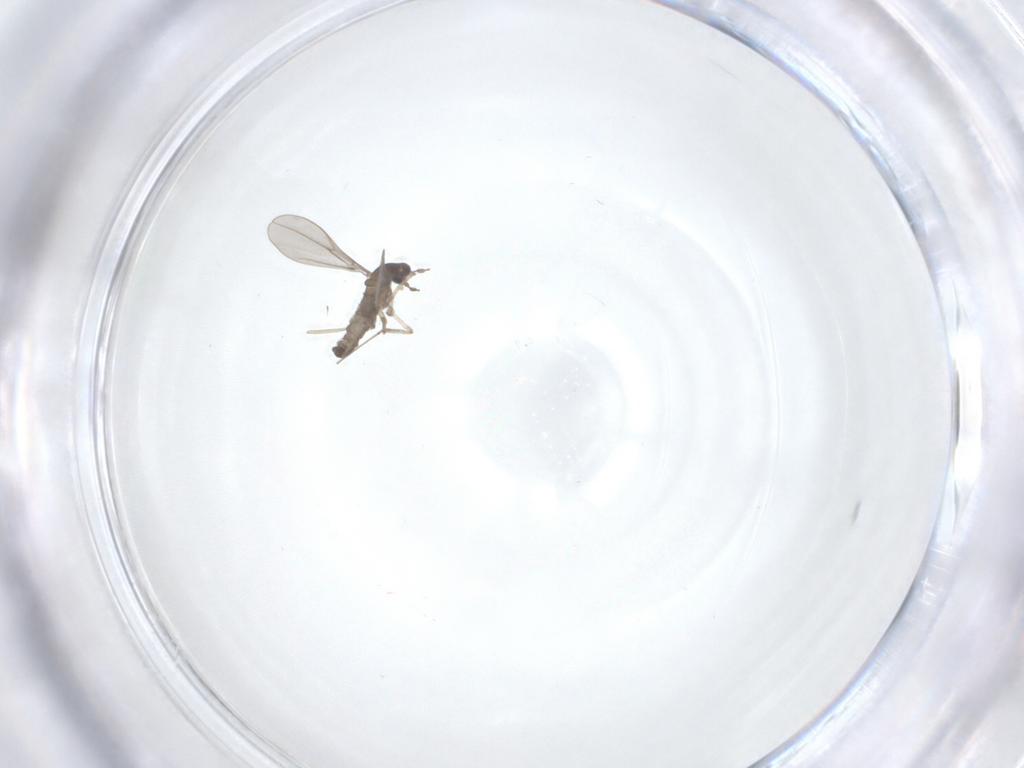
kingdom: Animalia
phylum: Arthropoda
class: Insecta
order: Diptera
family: Cecidomyiidae
